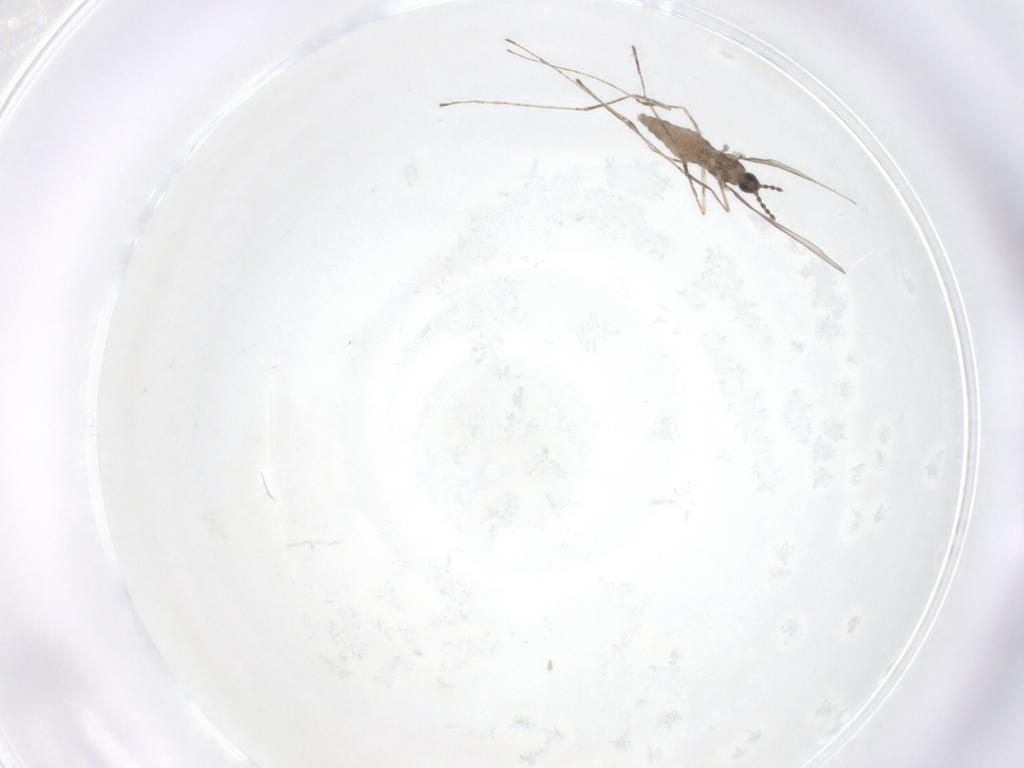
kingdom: Animalia
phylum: Arthropoda
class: Insecta
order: Diptera
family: Cecidomyiidae
